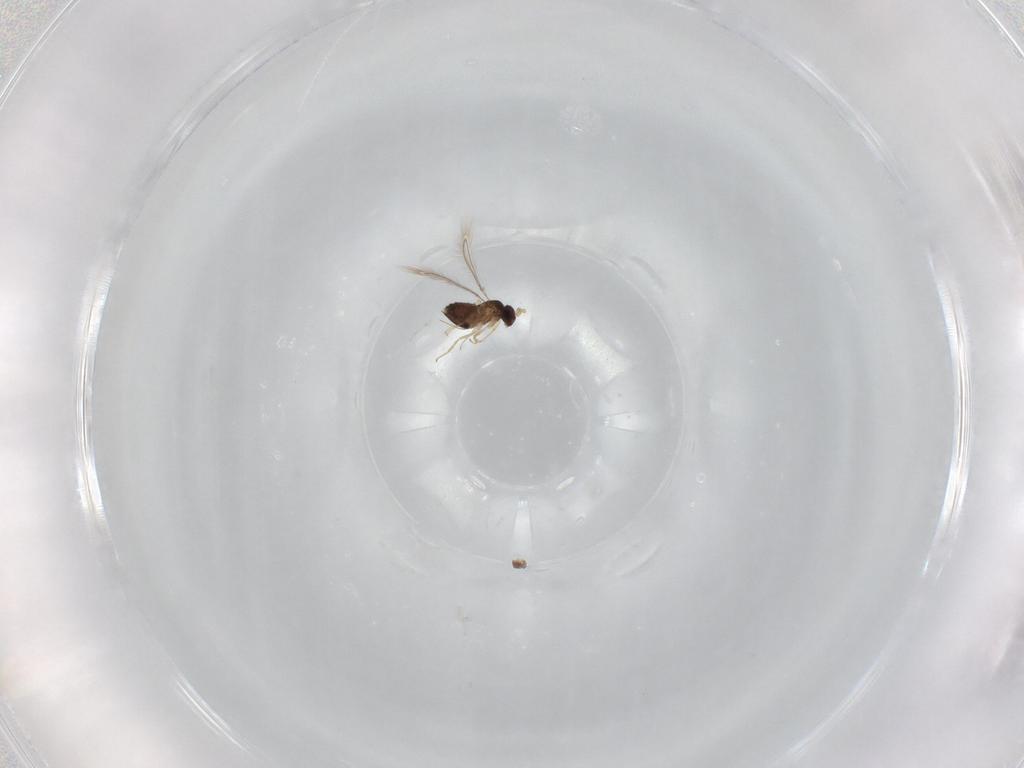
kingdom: Animalia
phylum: Arthropoda
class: Insecta
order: Hymenoptera
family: Mymaridae
